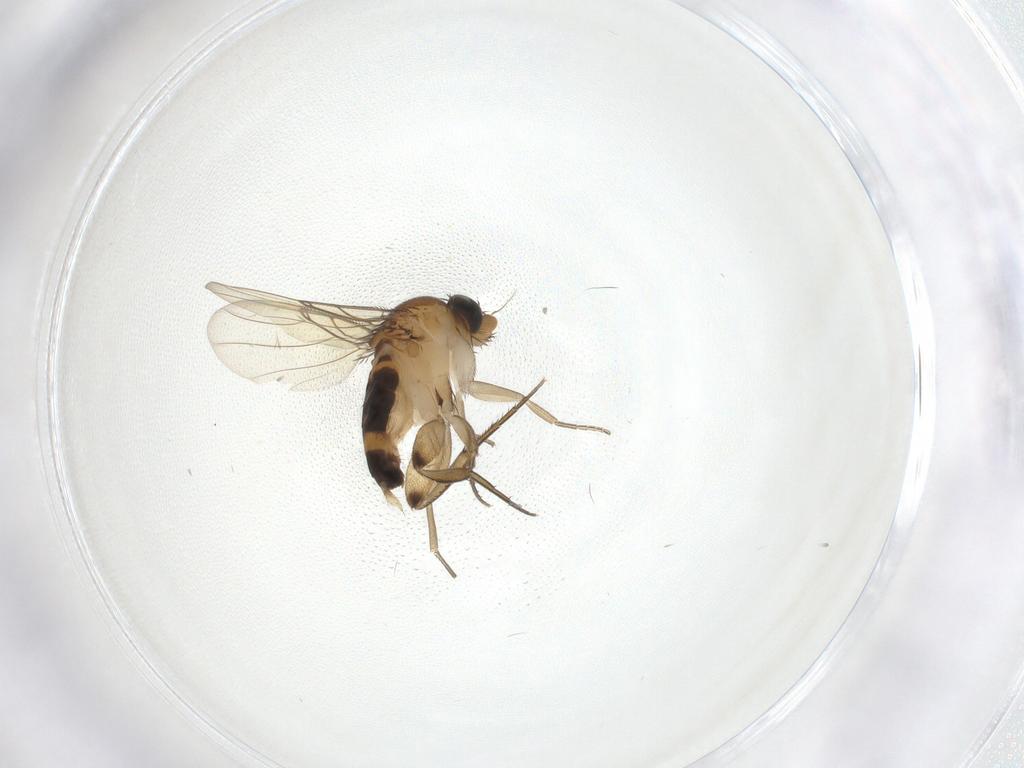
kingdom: Animalia
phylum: Arthropoda
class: Insecta
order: Diptera
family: Phoridae
